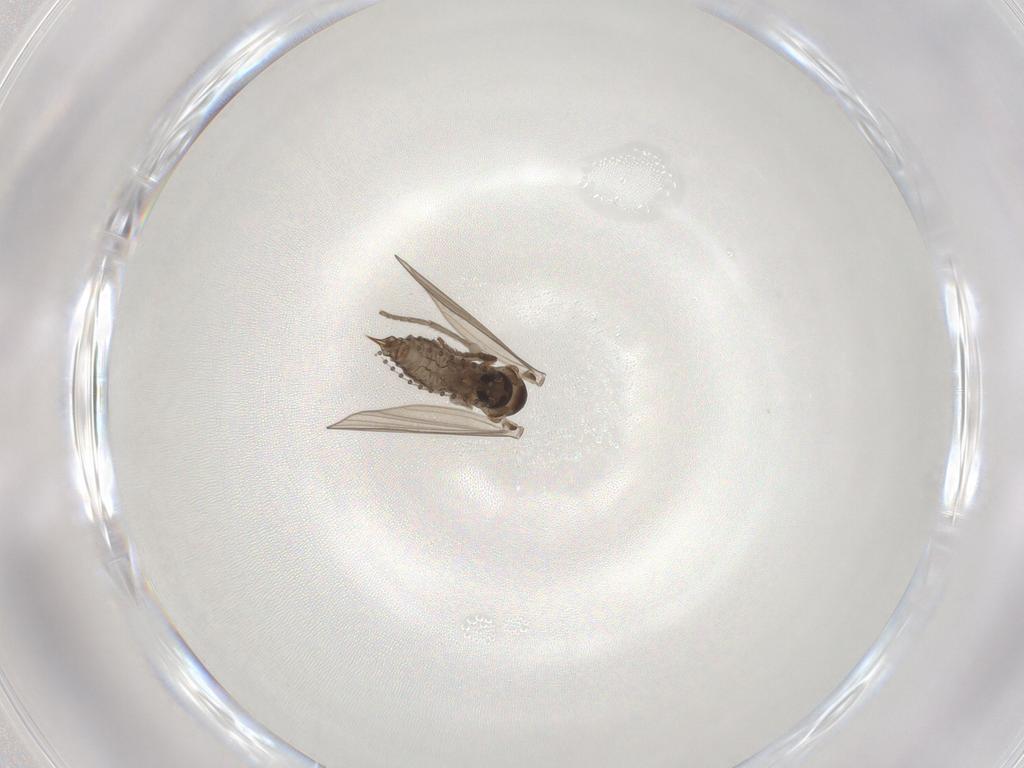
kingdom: Animalia
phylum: Arthropoda
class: Insecta
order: Diptera
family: Psychodidae
